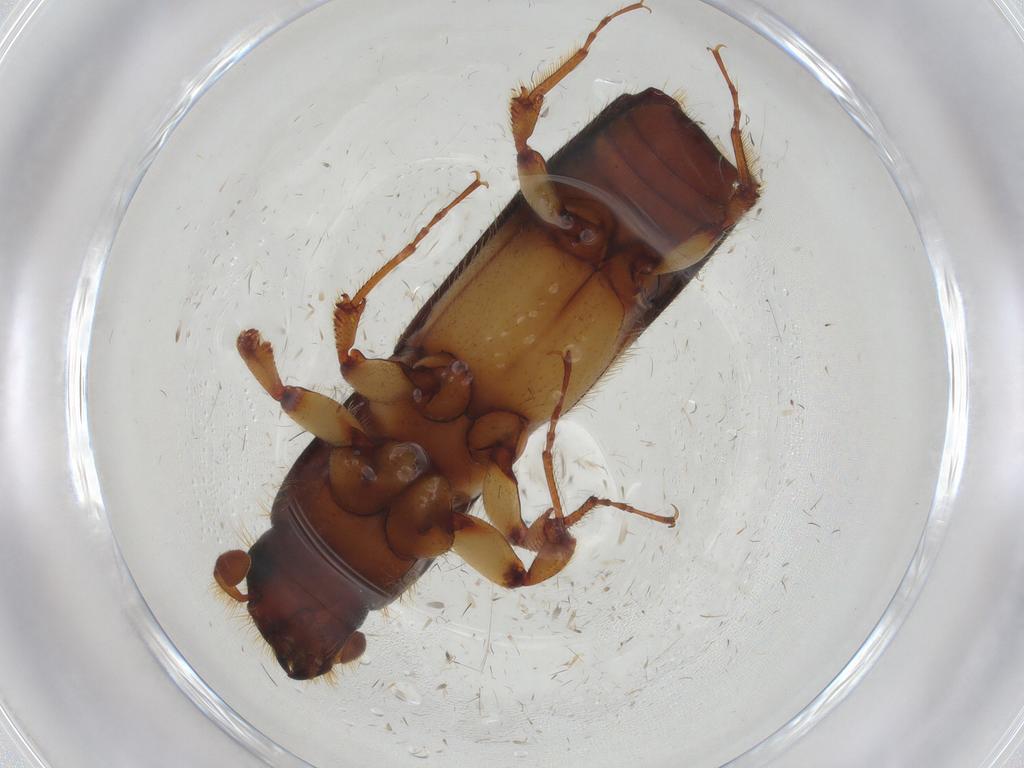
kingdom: Animalia
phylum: Arthropoda
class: Insecta
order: Coleoptera
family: Curculionidae
